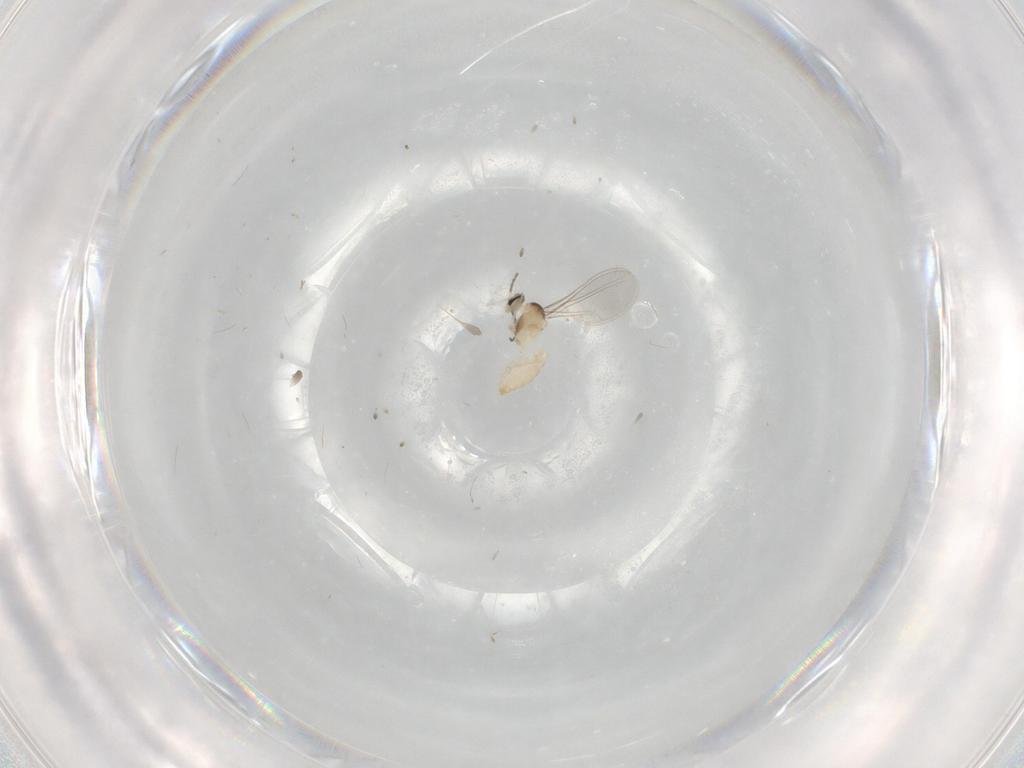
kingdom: Animalia
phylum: Arthropoda
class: Insecta
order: Diptera
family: Cecidomyiidae
